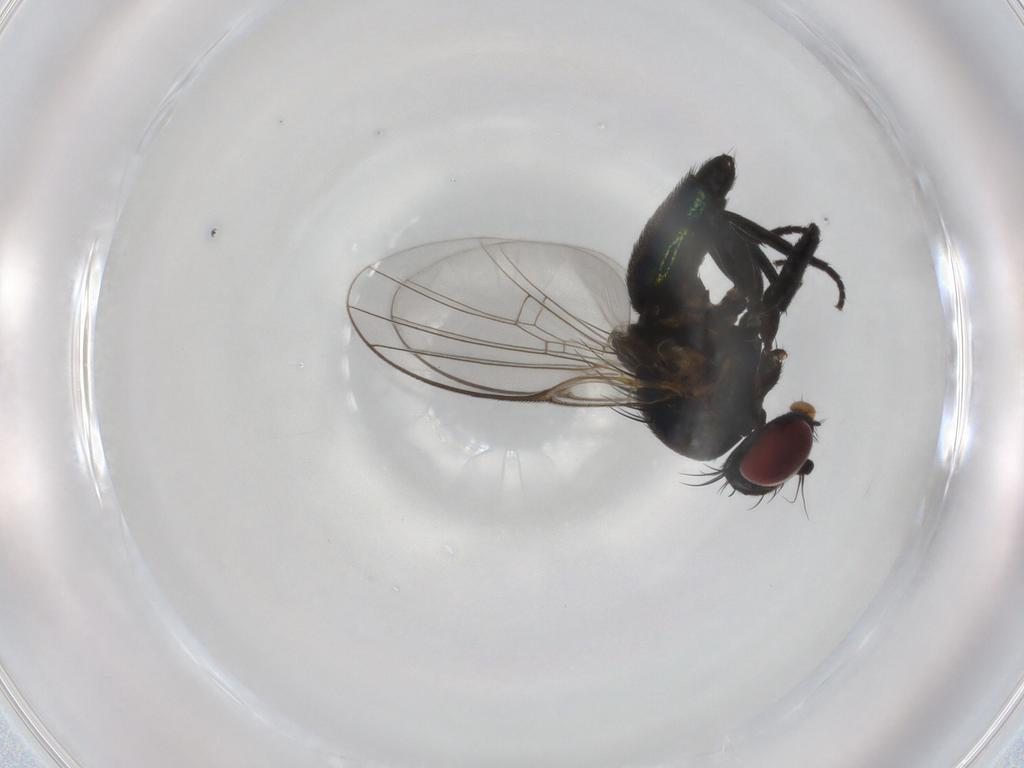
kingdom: Animalia
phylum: Arthropoda
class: Insecta
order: Diptera
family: Agromyzidae
